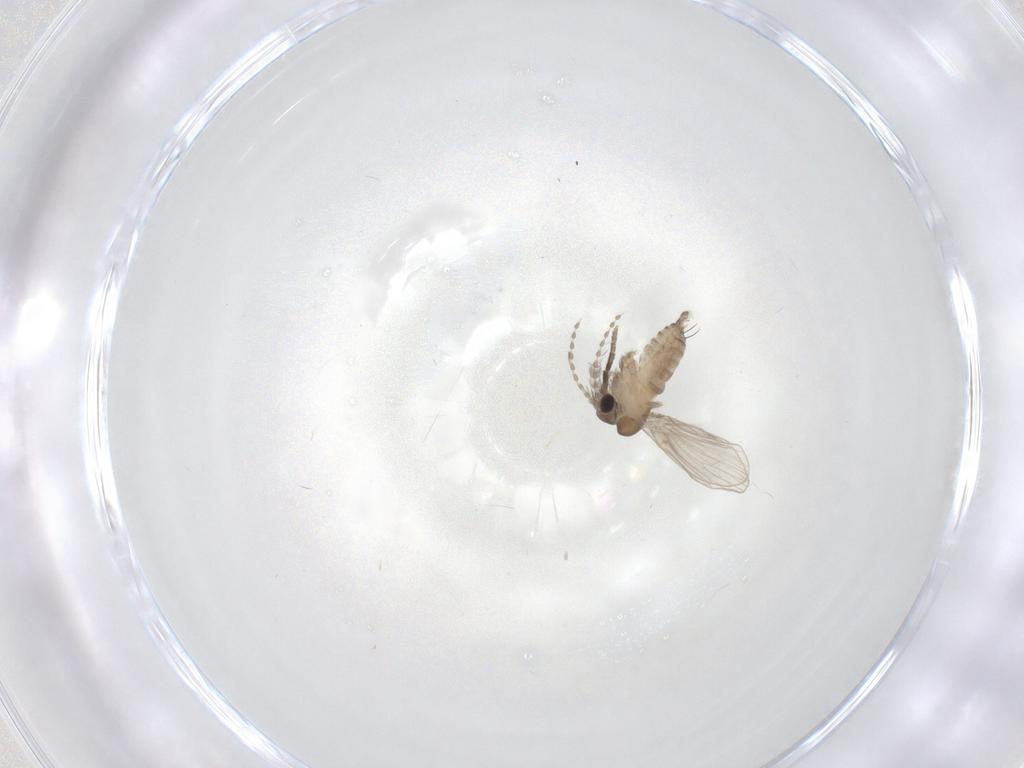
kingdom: Animalia
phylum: Arthropoda
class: Insecta
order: Diptera
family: Psychodidae
